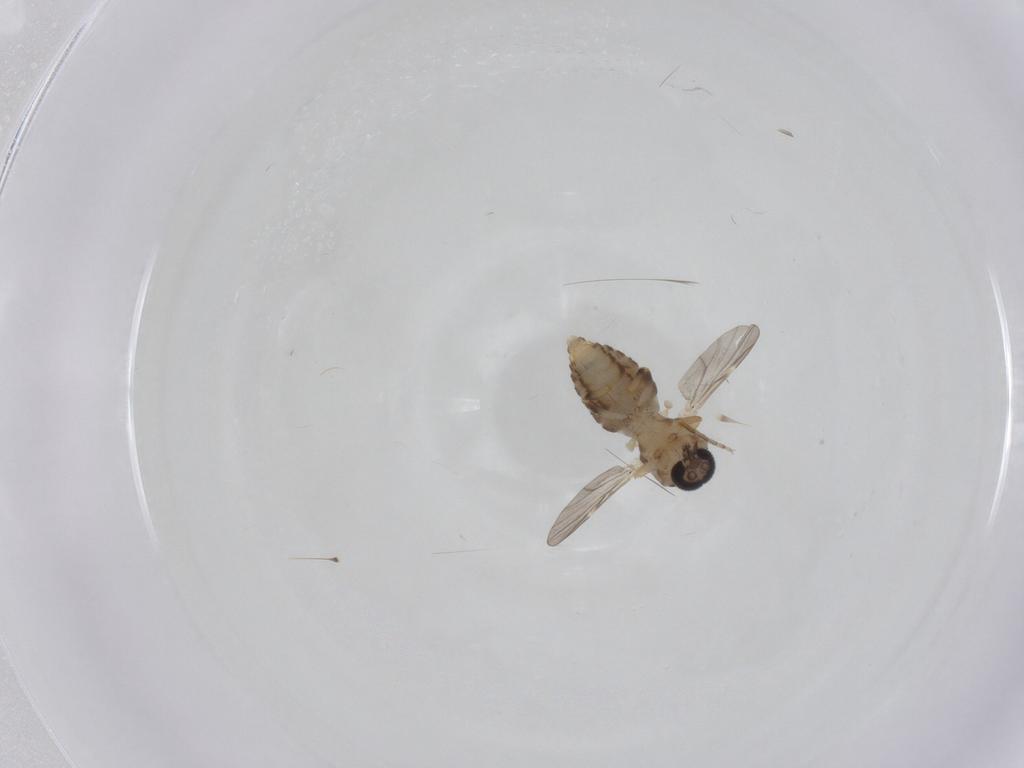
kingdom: Animalia
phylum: Arthropoda
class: Insecta
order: Diptera
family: Ceratopogonidae
